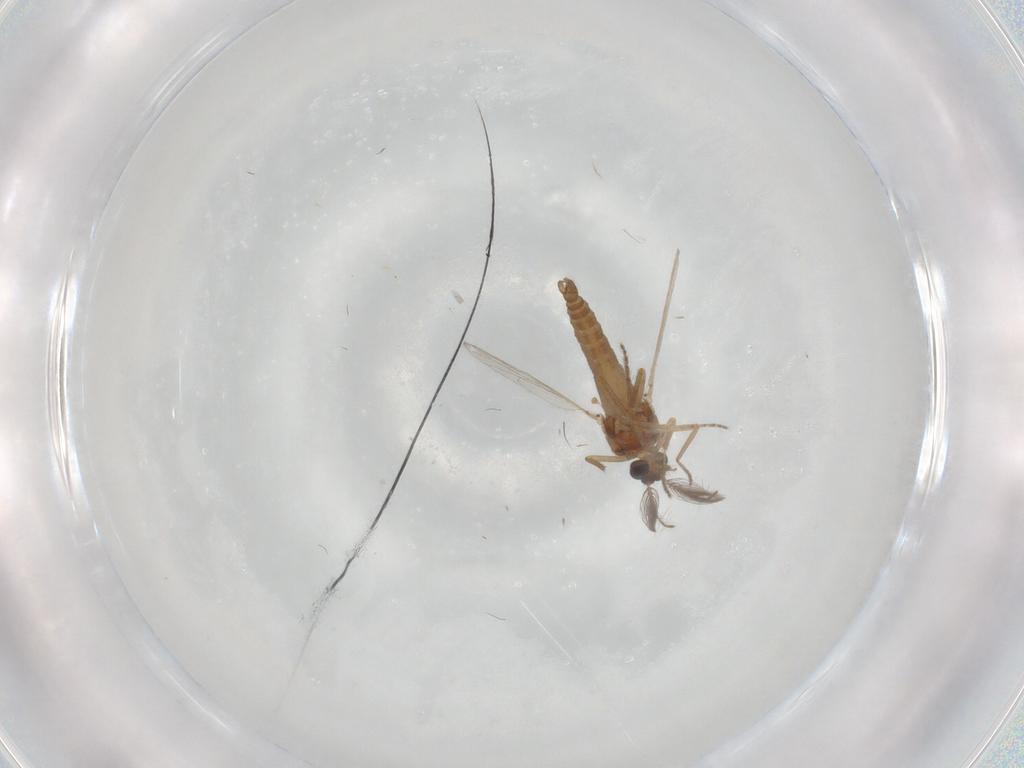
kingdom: Animalia
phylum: Arthropoda
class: Insecta
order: Diptera
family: Ceratopogonidae
